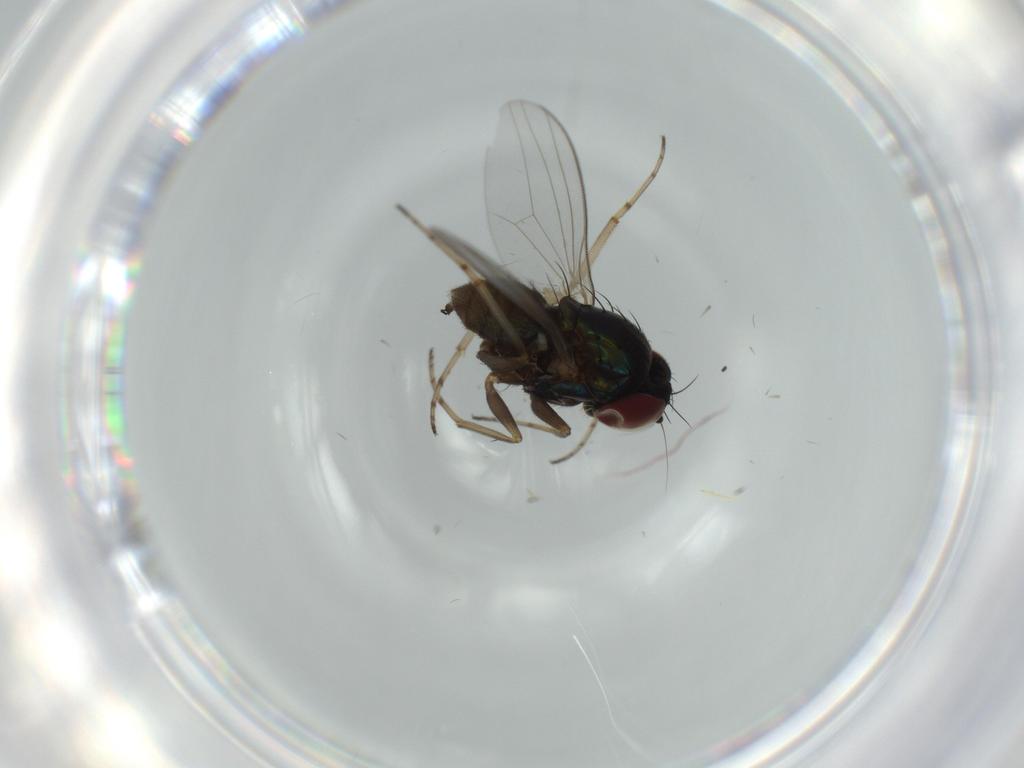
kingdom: Animalia
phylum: Arthropoda
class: Insecta
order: Diptera
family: Dolichopodidae
